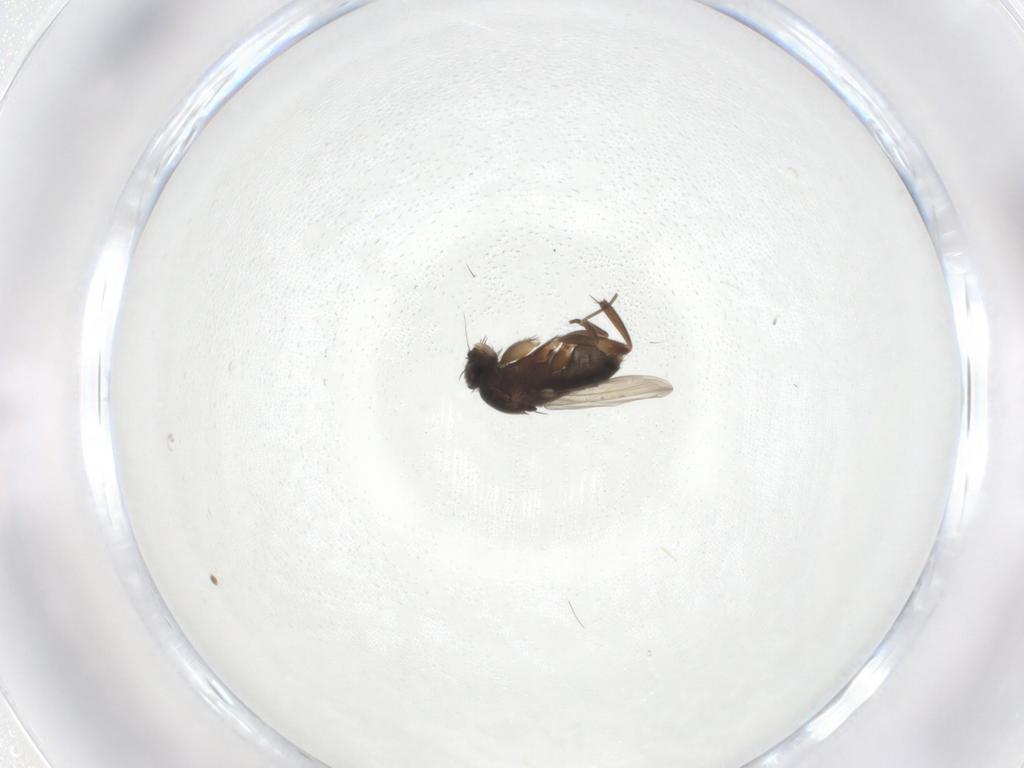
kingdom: Animalia
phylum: Arthropoda
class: Insecta
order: Diptera
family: Phoridae
